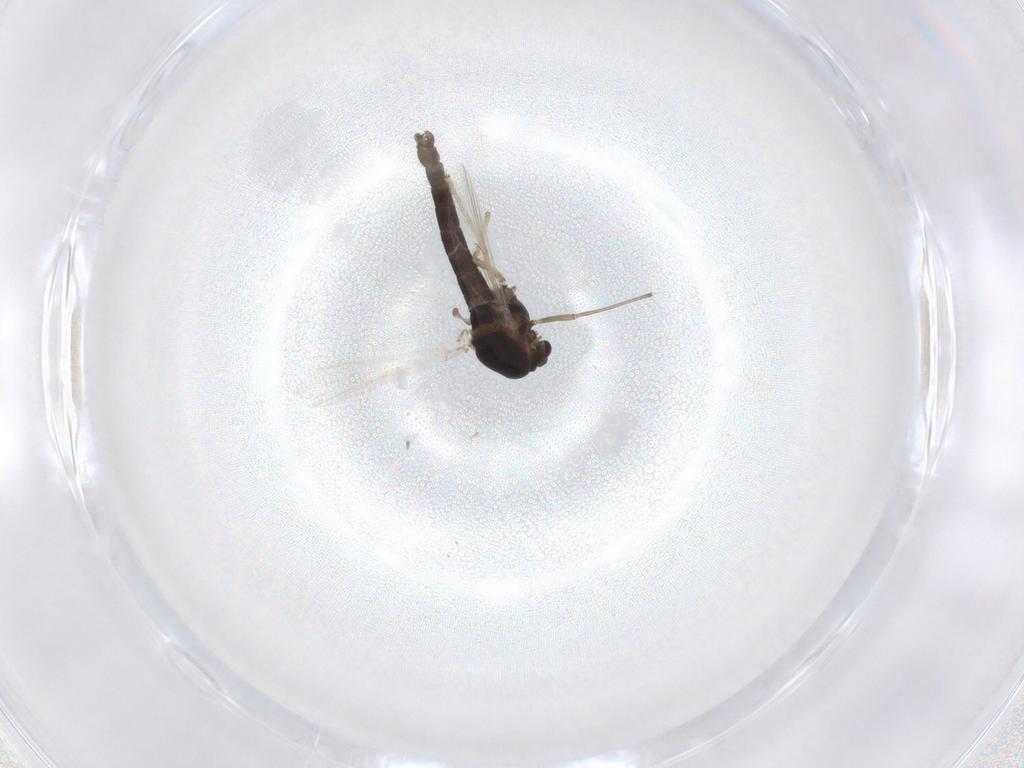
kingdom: Animalia
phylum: Arthropoda
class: Insecta
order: Diptera
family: Chironomidae
